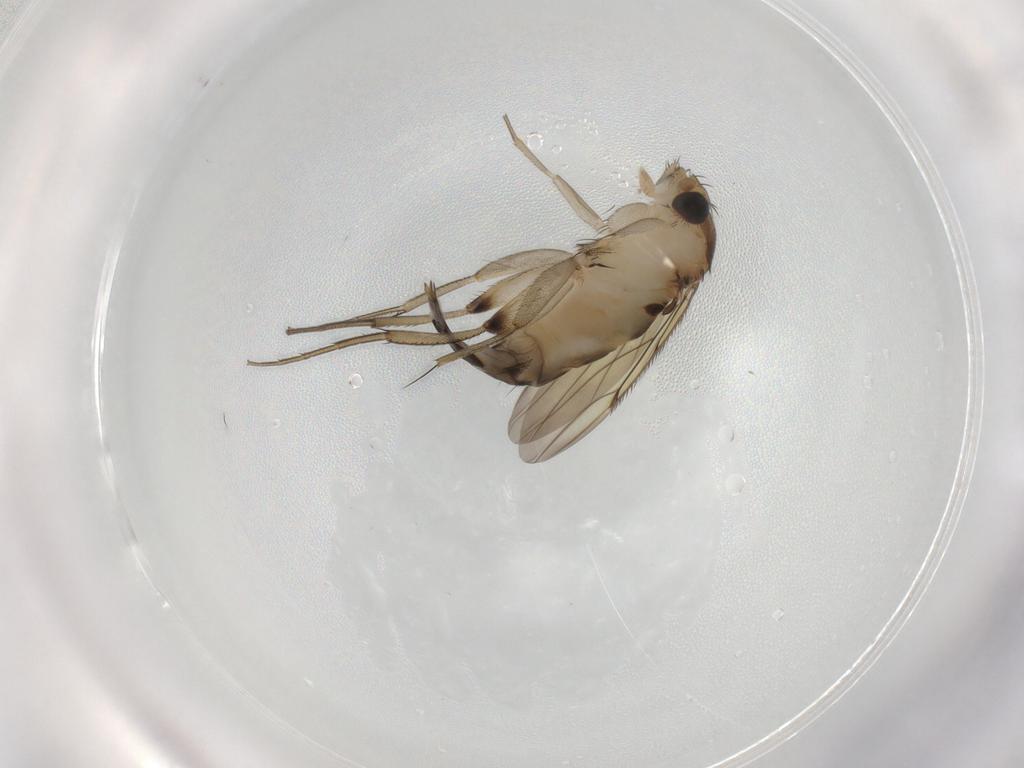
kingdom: Animalia
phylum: Arthropoda
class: Insecta
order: Diptera
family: Sciaridae
